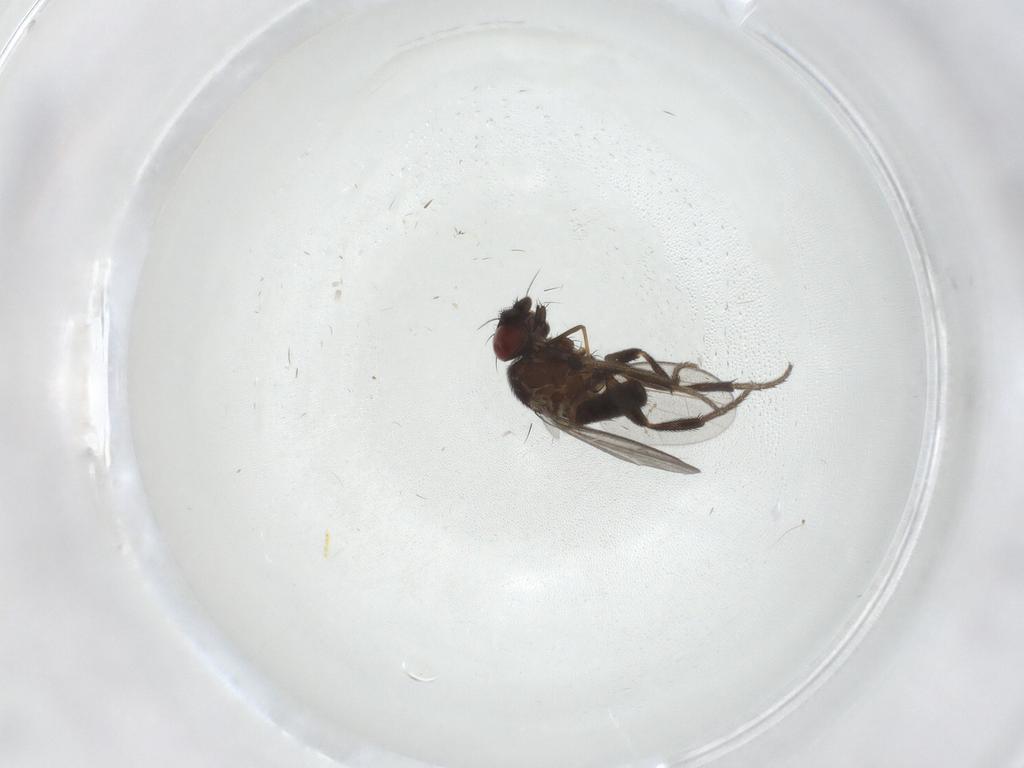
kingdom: Animalia
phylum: Arthropoda
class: Insecta
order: Diptera
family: Milichiidae
